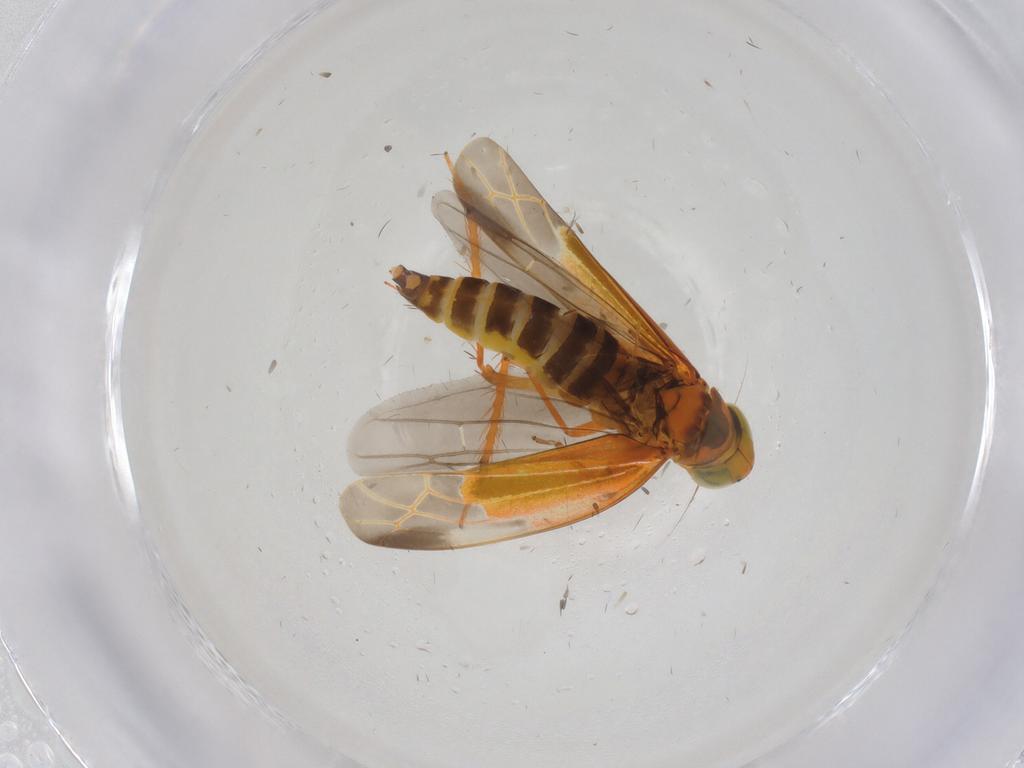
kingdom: Animalia
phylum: Arthropoda
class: Insecta
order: Hemiptera
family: Cicadellidae
